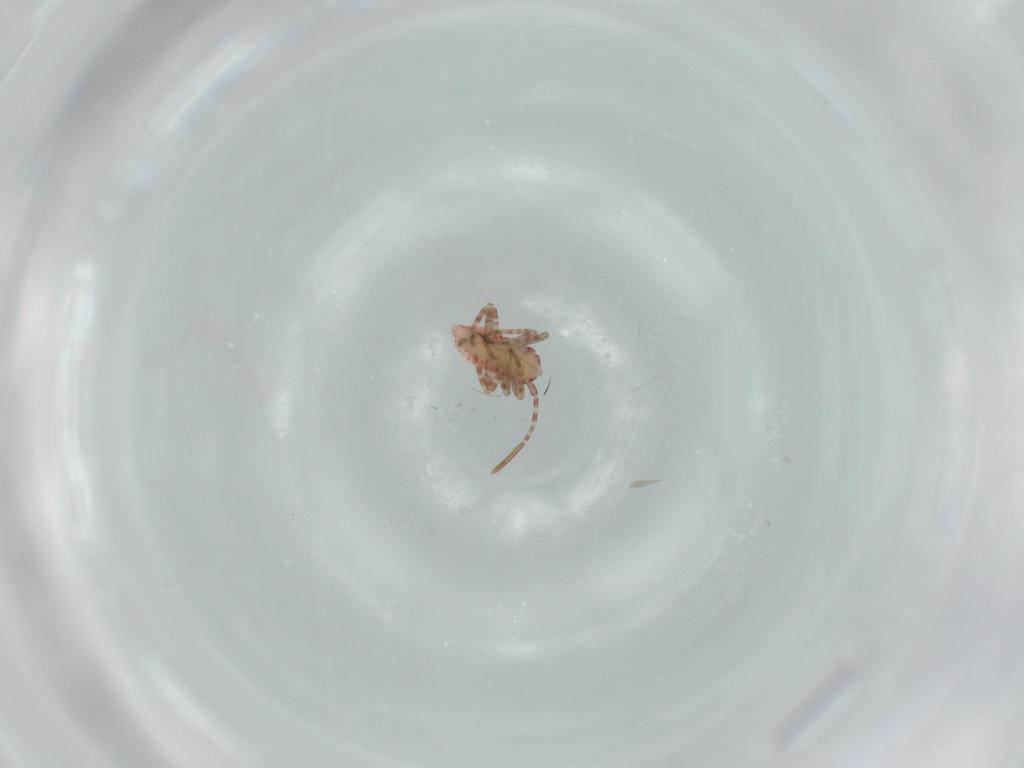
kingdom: Animalia
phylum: Arthropoda
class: Insecta
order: Hemiptera
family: Miridae
